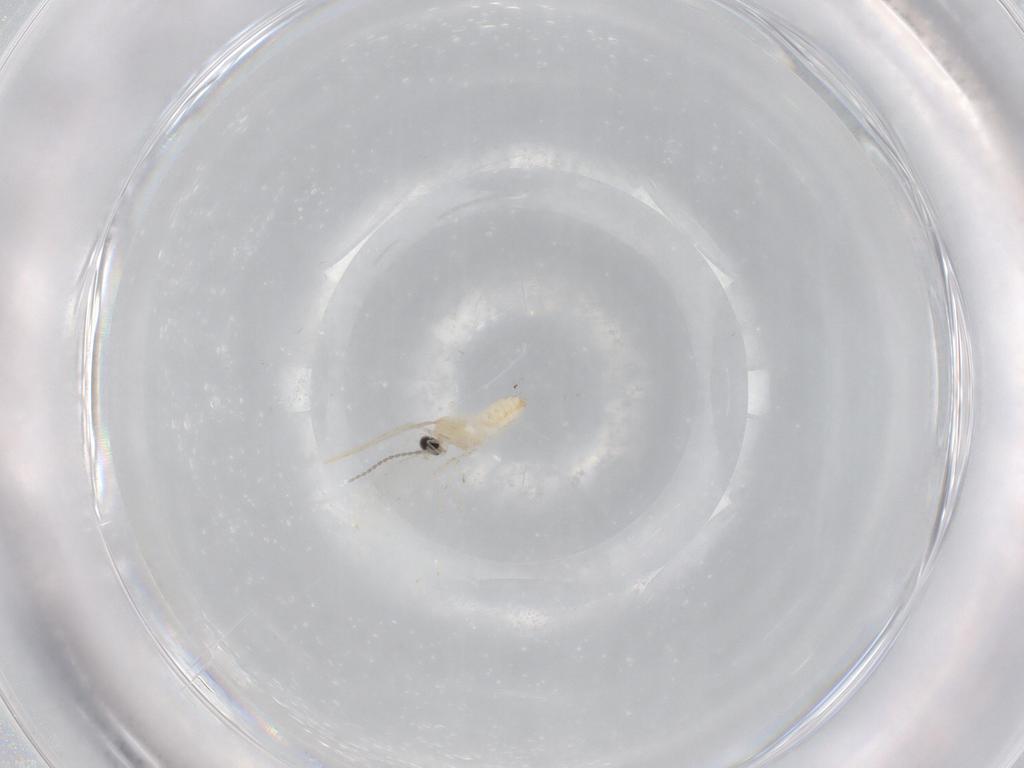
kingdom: Animalia
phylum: Arthropoda
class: Insecta
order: Diptera
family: Cecidomyiidae
